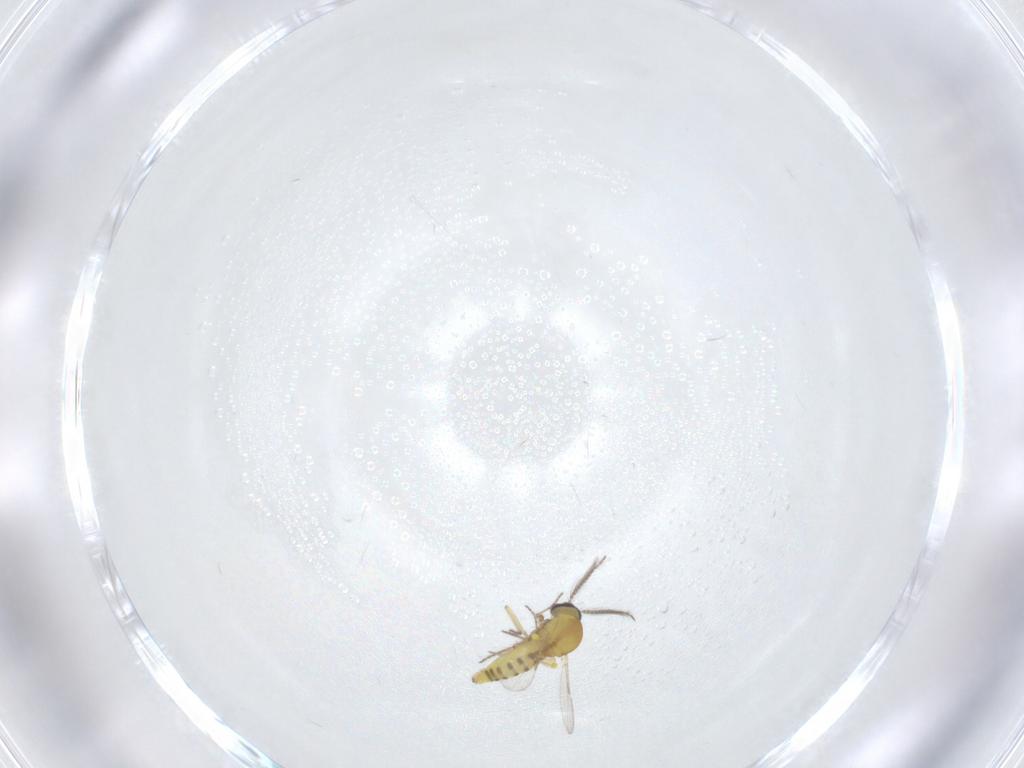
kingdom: Animalia
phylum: Arthropoda
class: Insecta
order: Diptera
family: Ceratopogonidae
